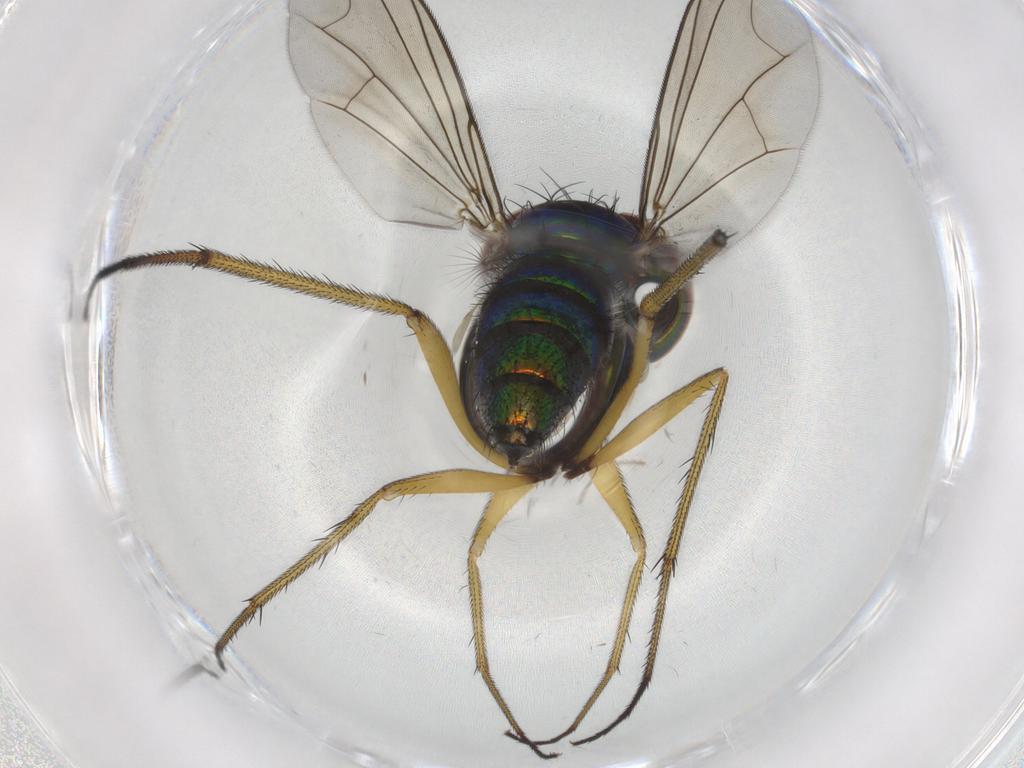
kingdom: Animalia
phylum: Arthropoda
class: Insecta
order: Diptera
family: Dolichopodidae
